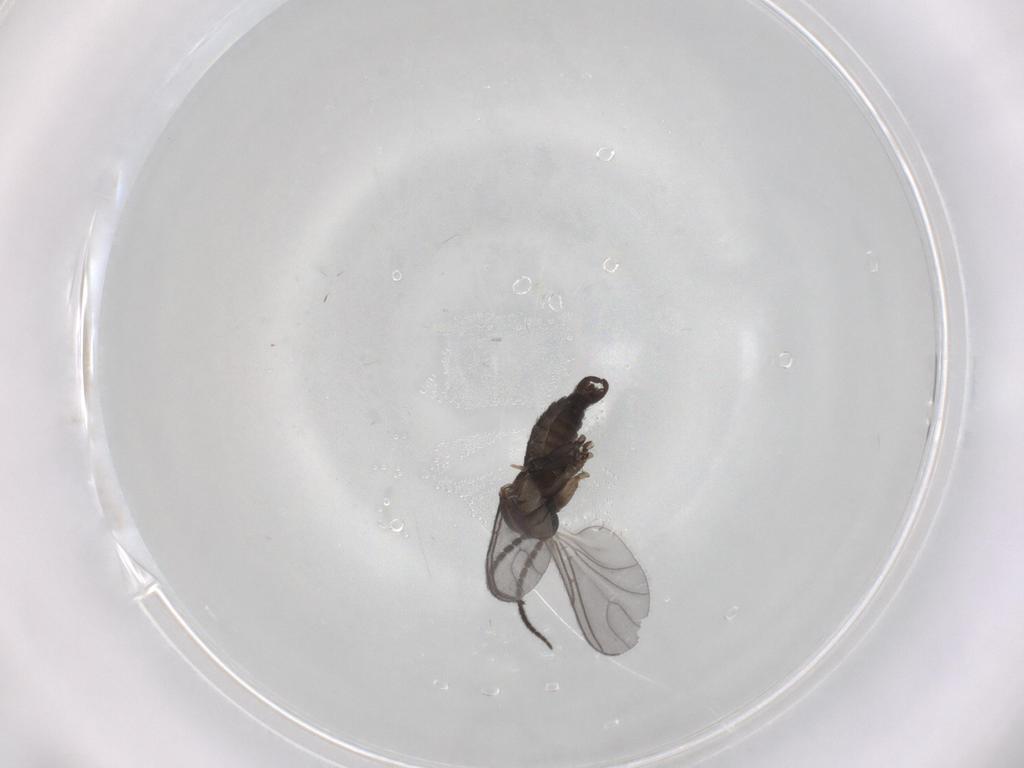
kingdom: Animalia
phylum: Arthropoda
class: Insecta
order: Diptera
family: Sciaridae
